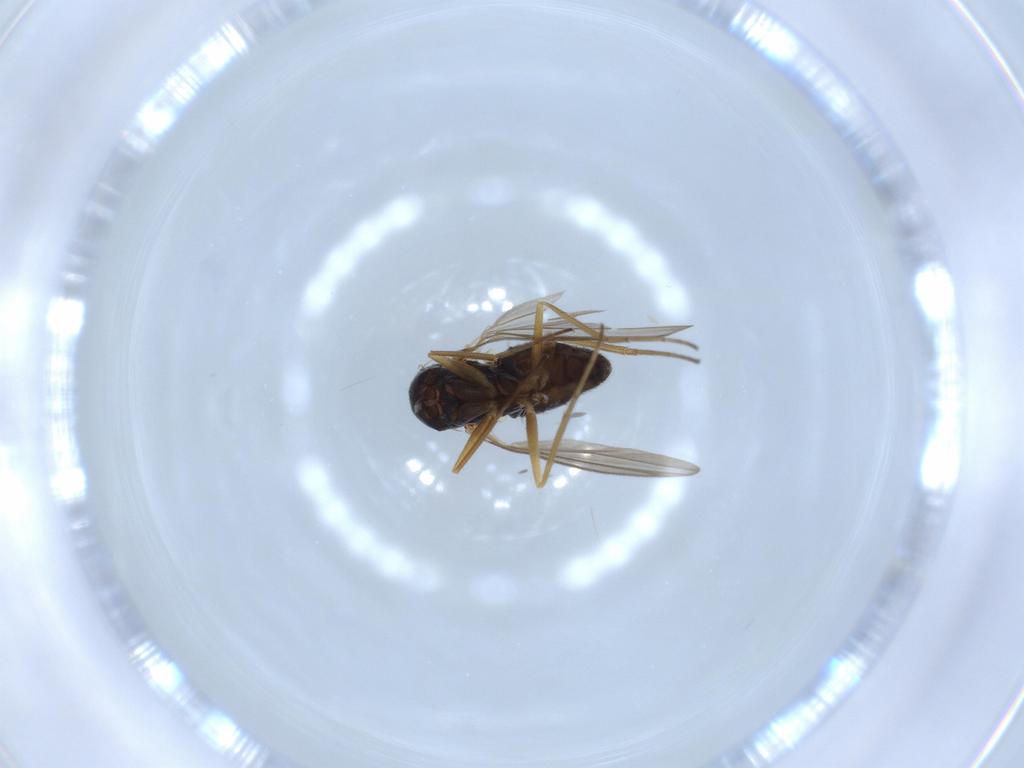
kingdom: Animalia
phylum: Arthropoda
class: Insecta
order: Diptera
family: Dolichopodidae
